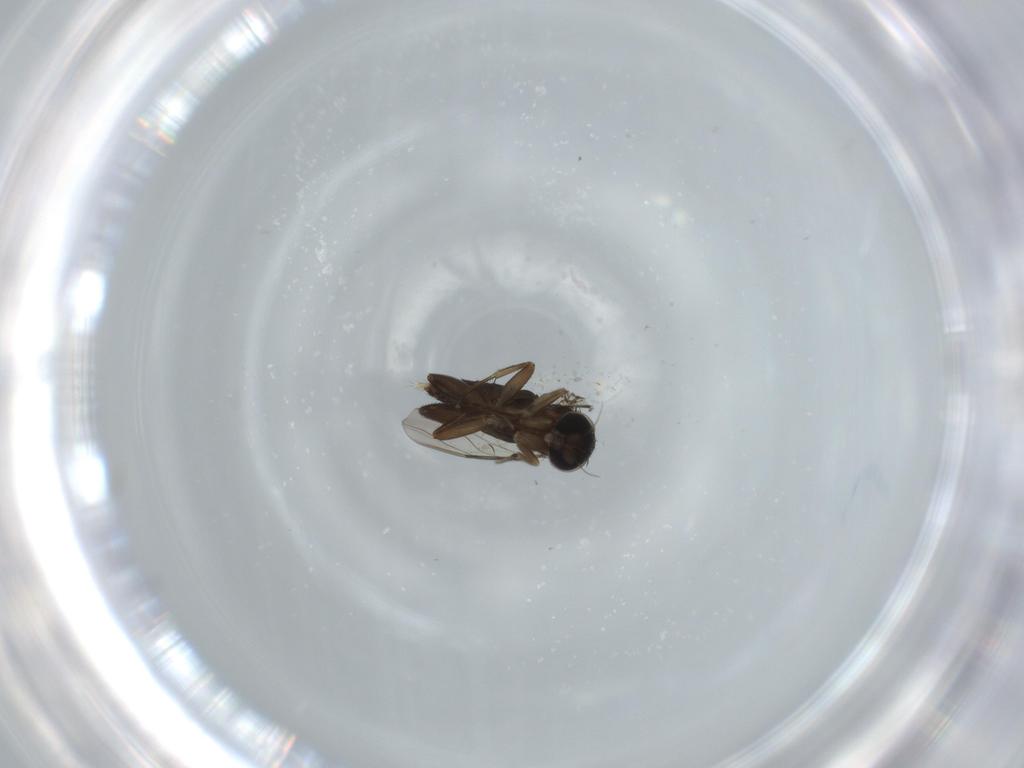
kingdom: Animalia
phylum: Arthropoda
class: Insecta
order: Diptera
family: Phoridae
